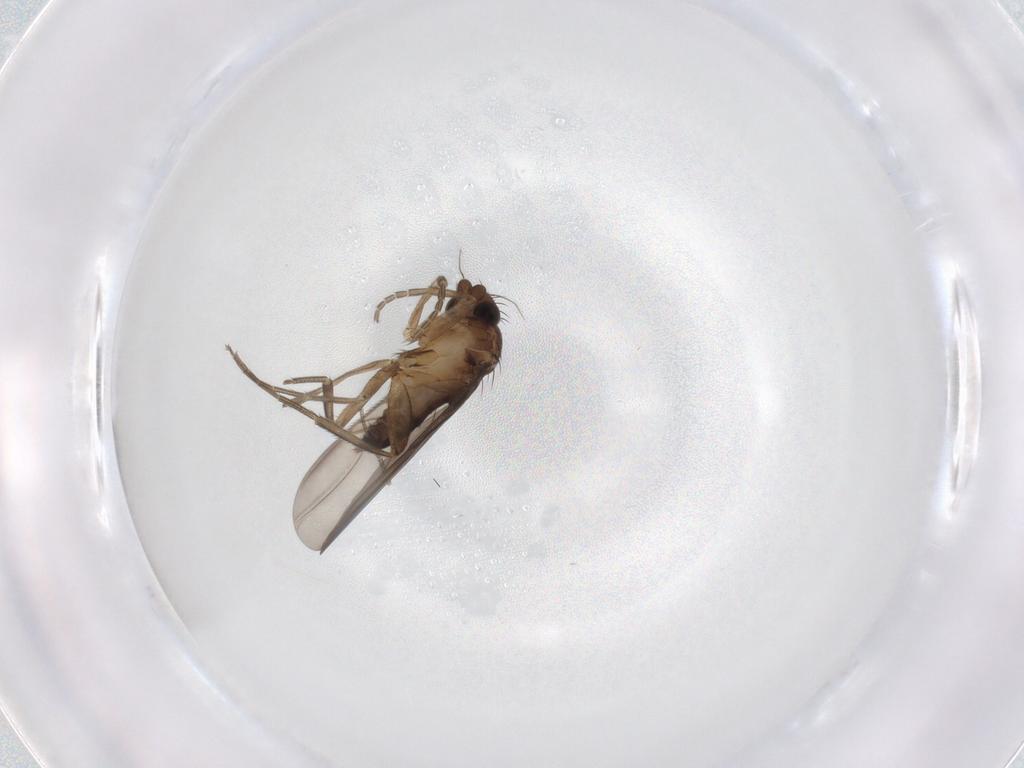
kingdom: Animalia
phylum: Arthropoda
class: Insecta
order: Diptera
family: Phoridae
